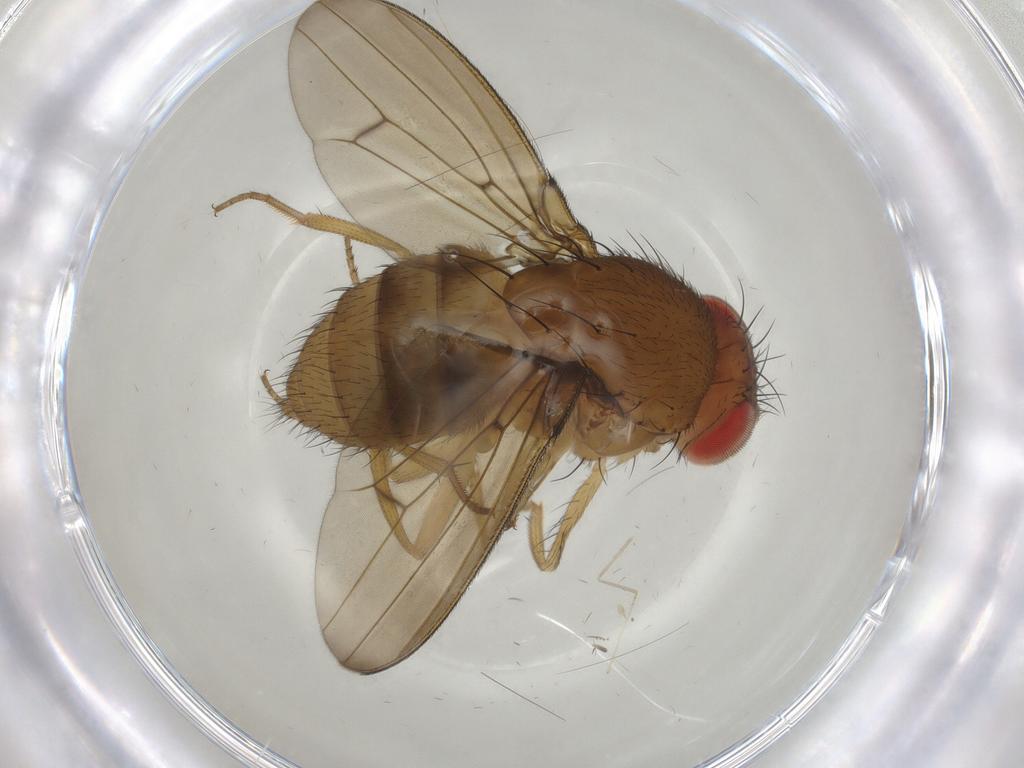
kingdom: Animalia
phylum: Arthropoda
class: Insecta
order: Diptera
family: Drosophilidae
